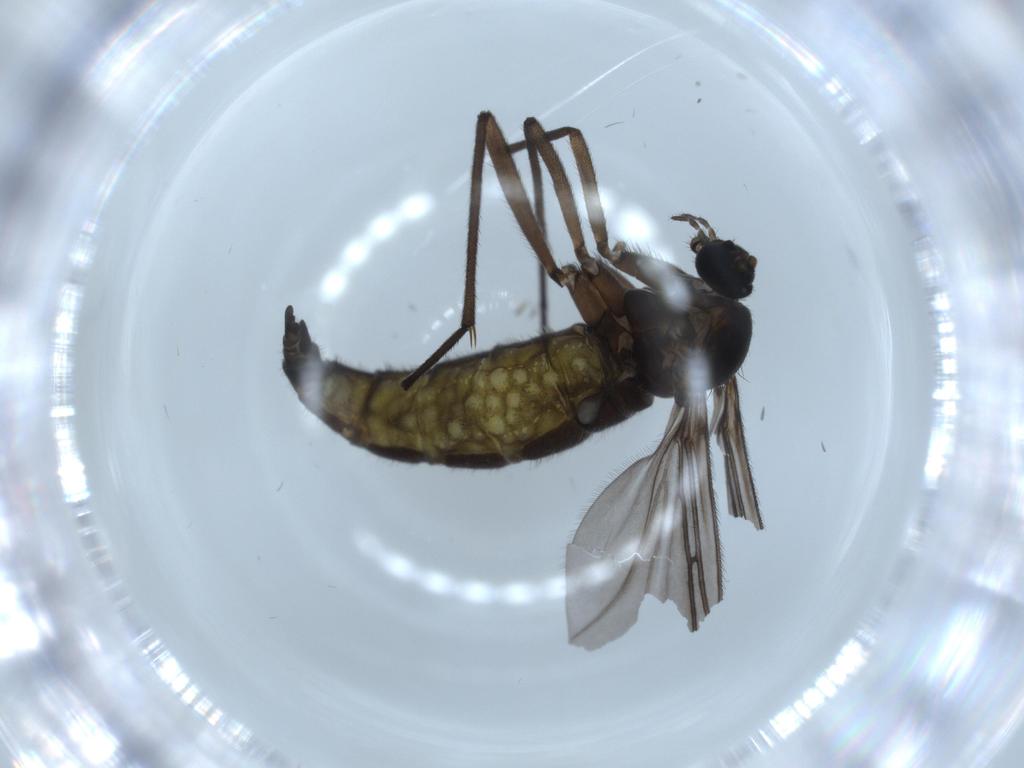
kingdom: Animalia
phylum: Arthropoda
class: Insecta
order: Diptera
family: Sciaridae
